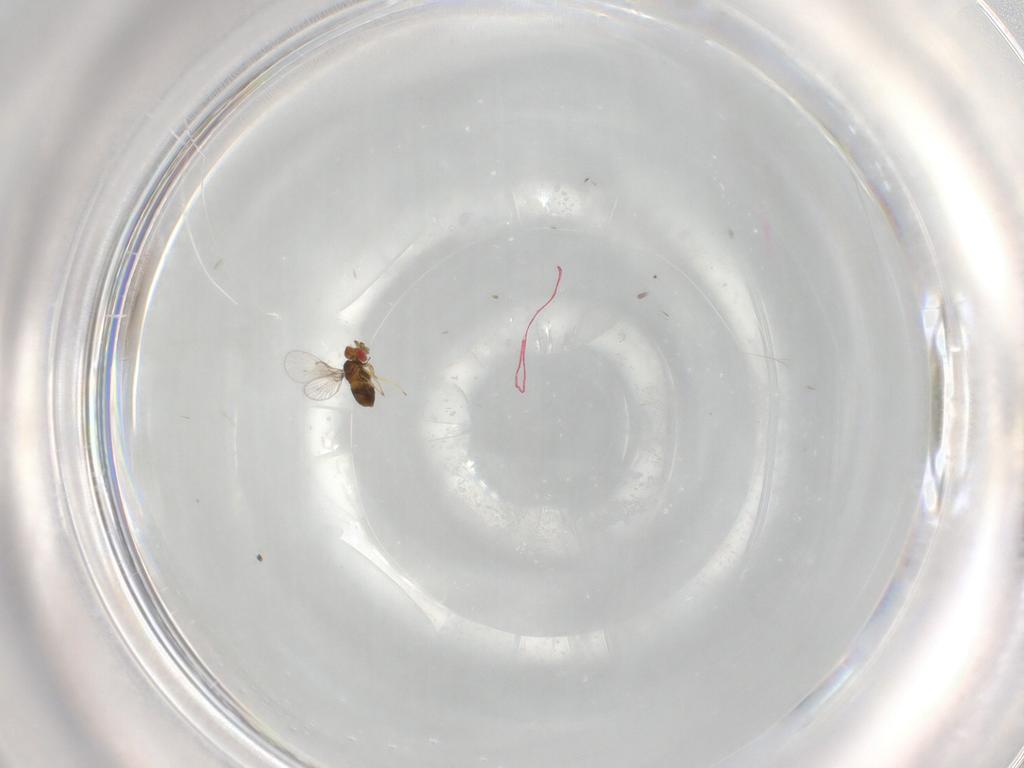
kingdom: Animalia
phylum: Arthropoda
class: Insecta
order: Hymenoptera
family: Trichogrammatidae
